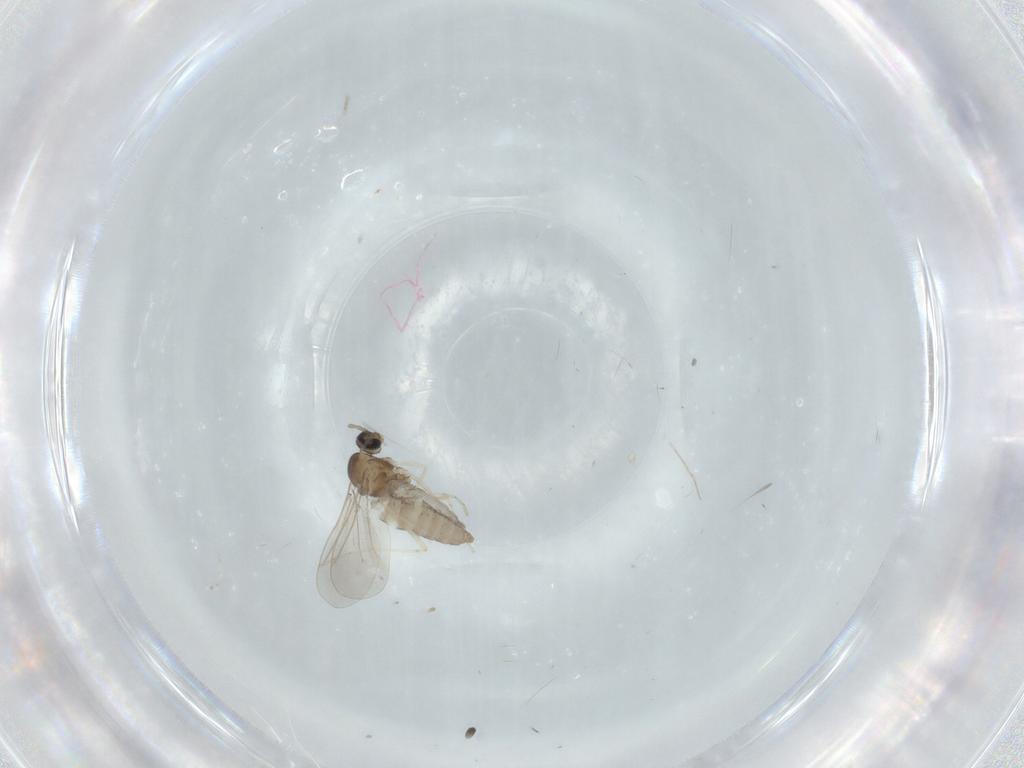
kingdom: Animalia
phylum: Arthropoda
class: Insecta
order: Diptera
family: Cecidomyiidae
